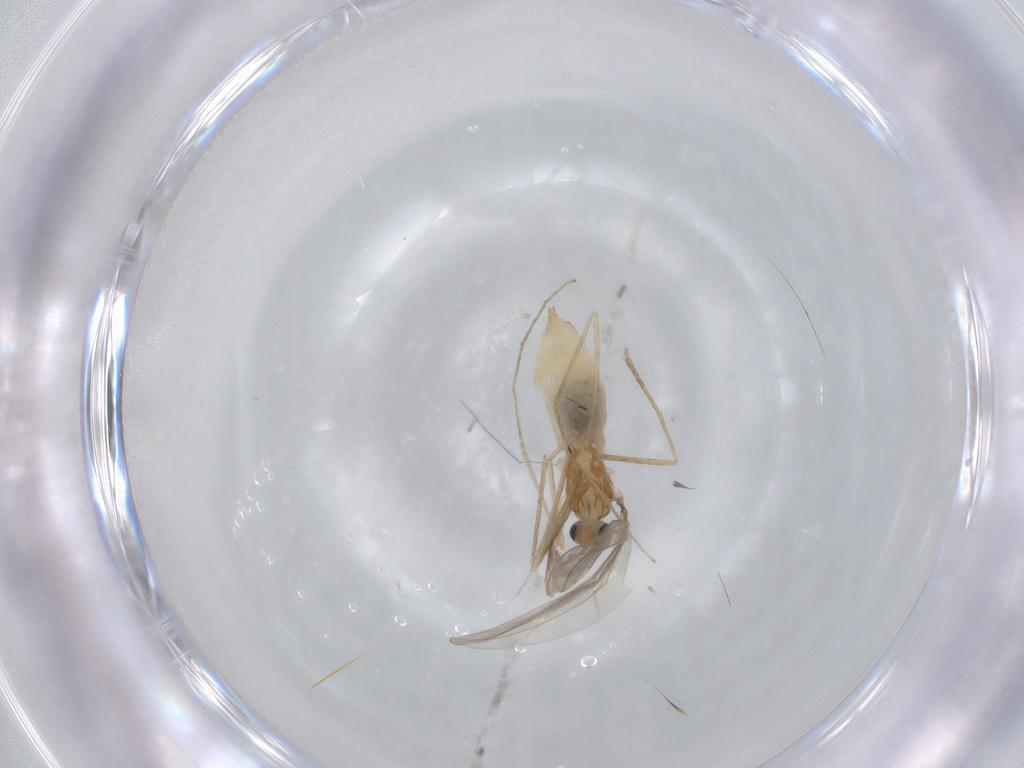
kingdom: Animalia
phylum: Arthropoda
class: Insecta
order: Diptera
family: Cecidomyiidae
